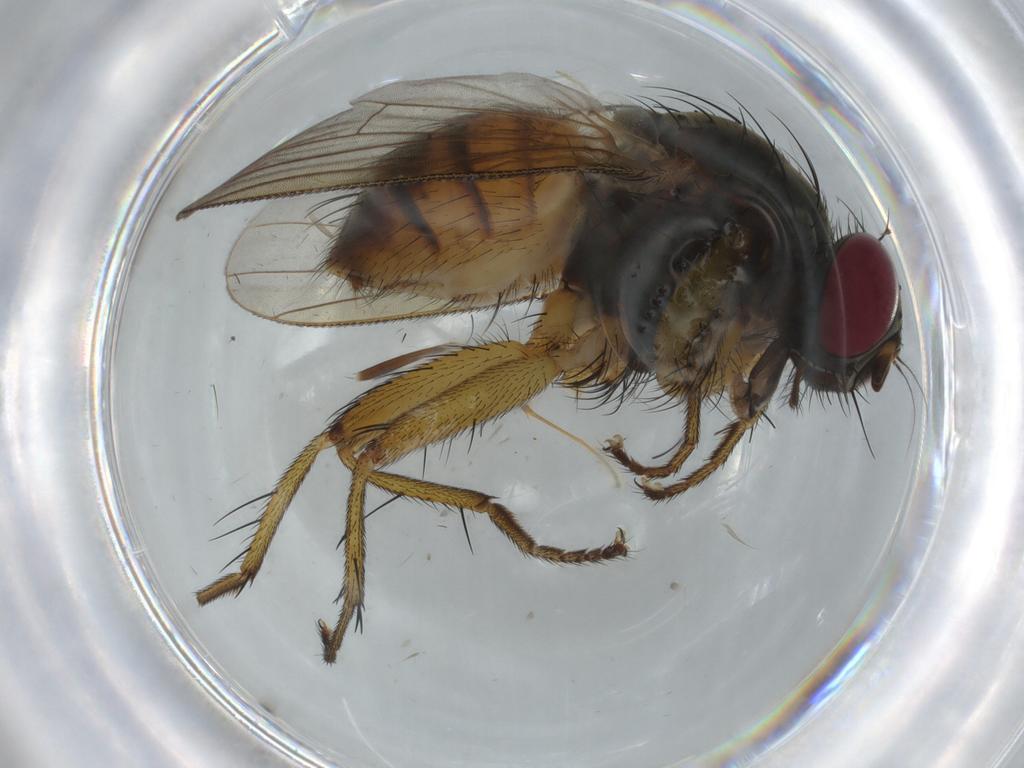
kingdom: Animalia
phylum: Arthropoda
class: Insecta
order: Diptera
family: Muscidae
